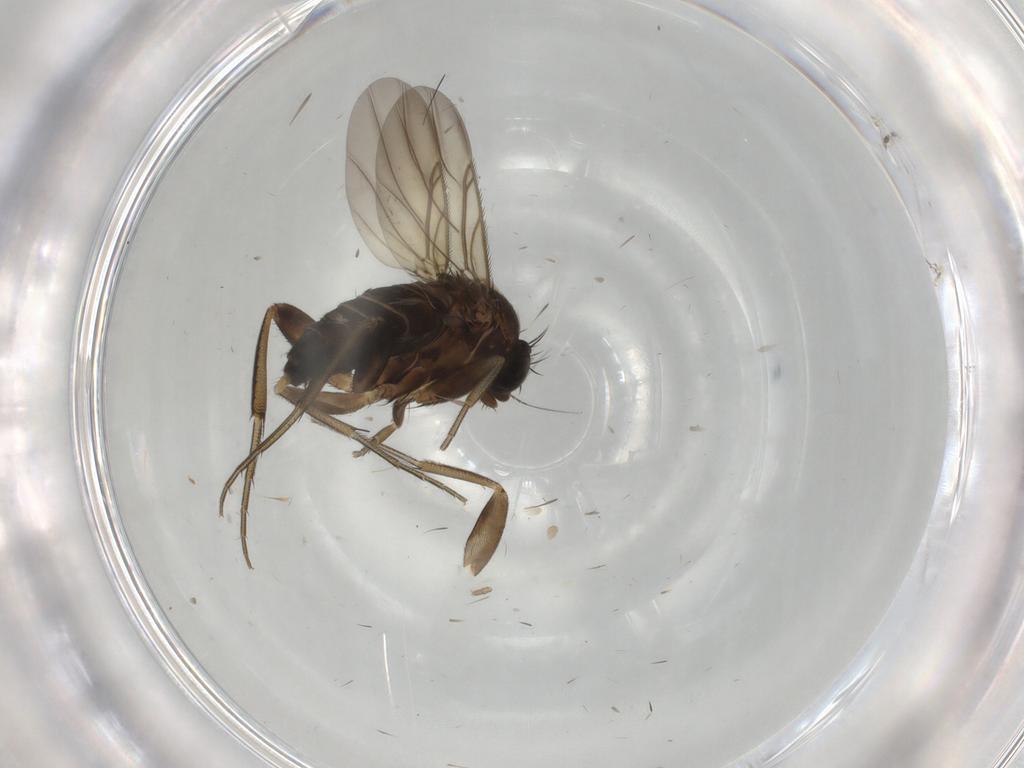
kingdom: Animalia
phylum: Arthropoda
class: Insecta
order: Diptera
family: Phoridae
